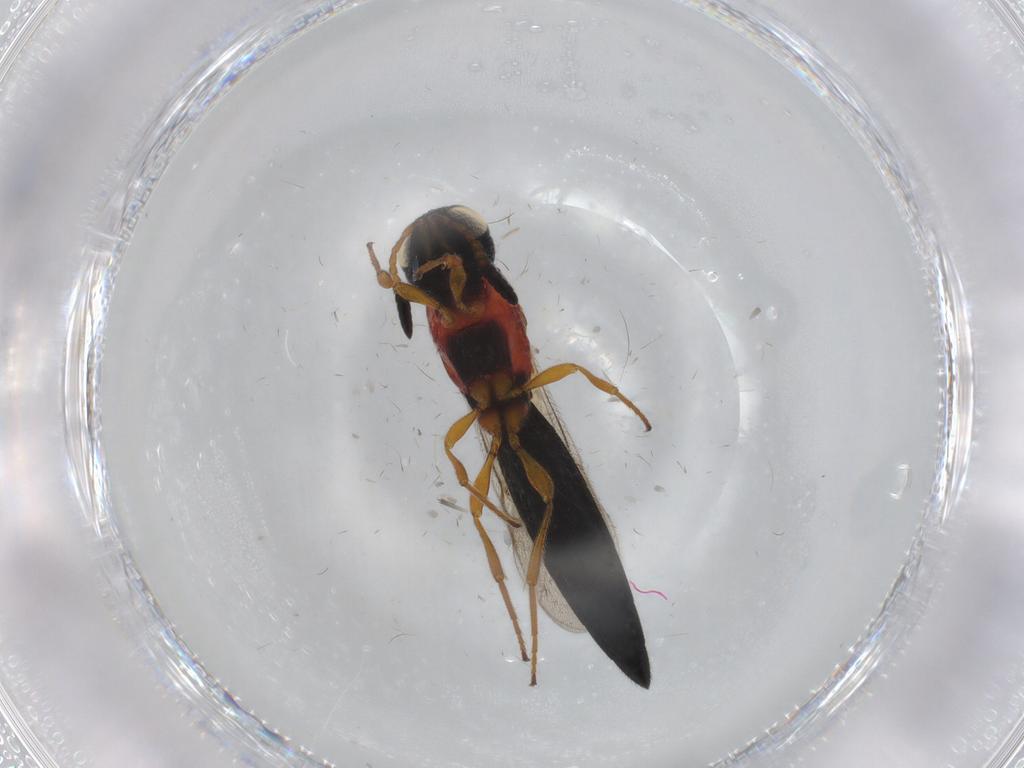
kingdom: Animalia
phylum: Arthropoda
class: Insecta
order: Hymenoptera
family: Scelionidae
